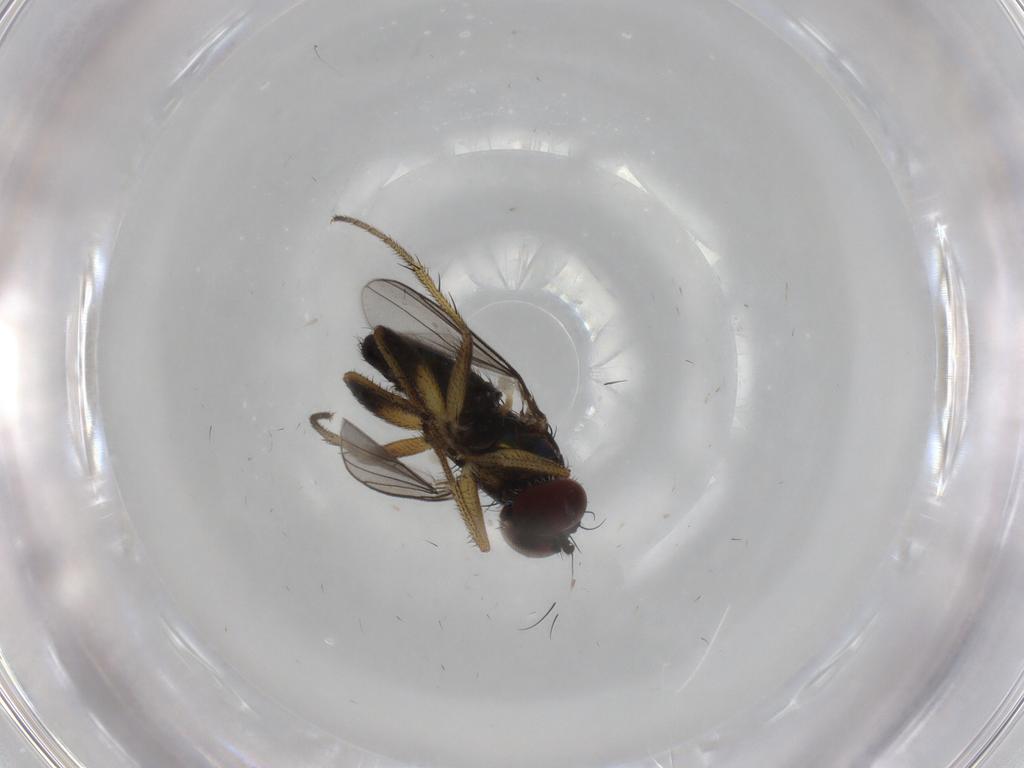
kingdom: Animalia
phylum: Arthropoda
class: Insecta
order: Diptera
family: Dolichopodidae
